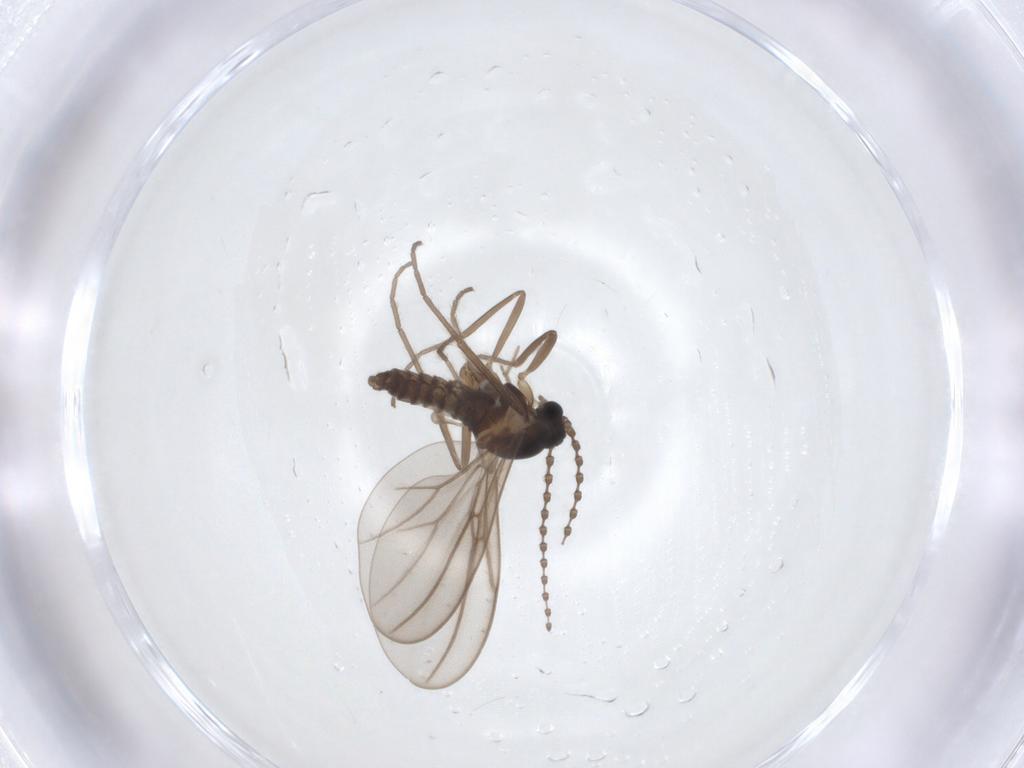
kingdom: Animalia
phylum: Arthropoda
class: Insecta
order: Diptera
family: Cecidomyiidae
